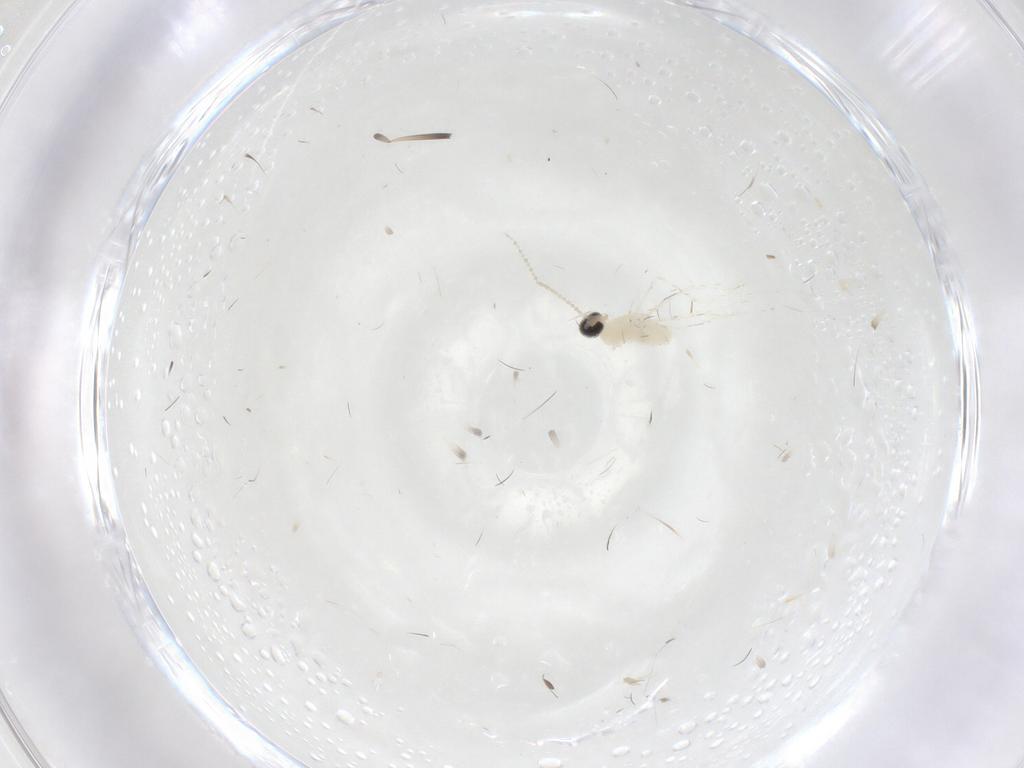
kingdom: Animalia
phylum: Arthropoda
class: Insecta
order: Diptera
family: Cecidomyiidae
